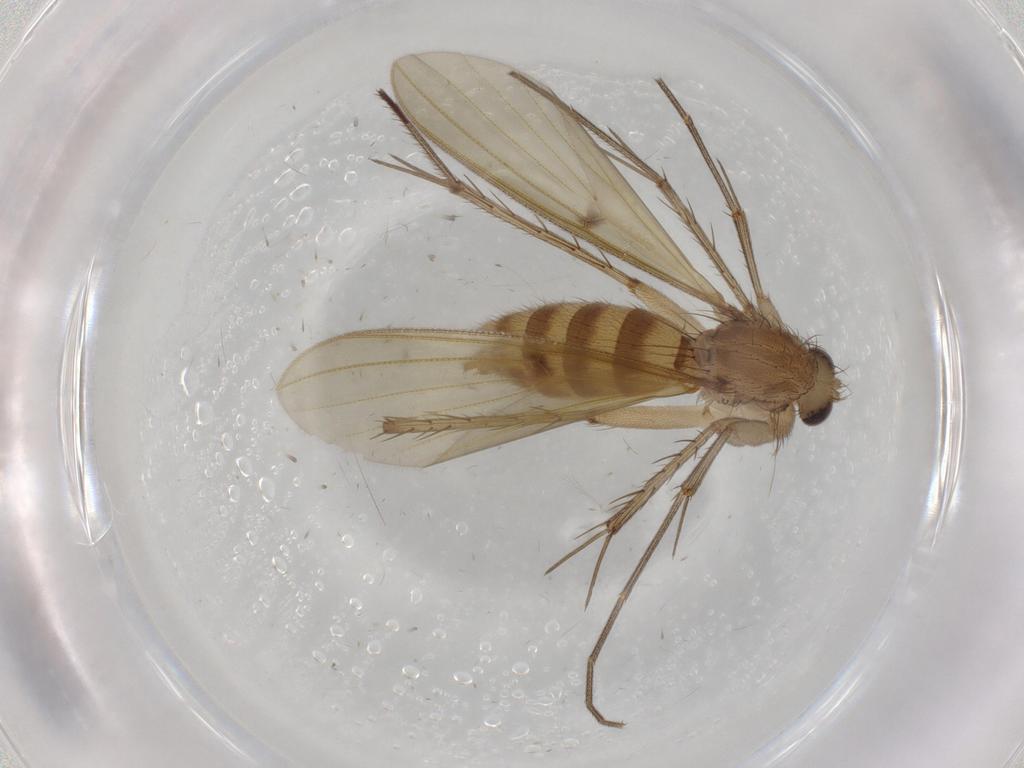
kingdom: Animalia
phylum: Arthropoda
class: Insecta
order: Diptera
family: Mycetophilidae
